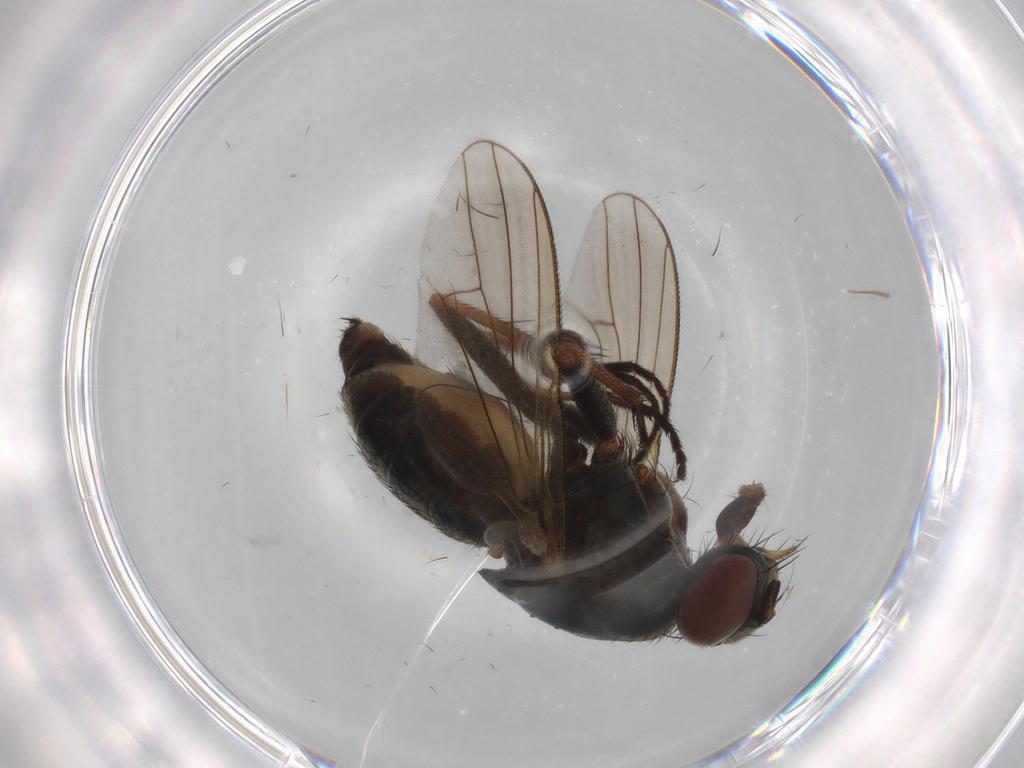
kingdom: Animalia
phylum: Arthropoda
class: Insecta
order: Diptera
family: Muscidae
